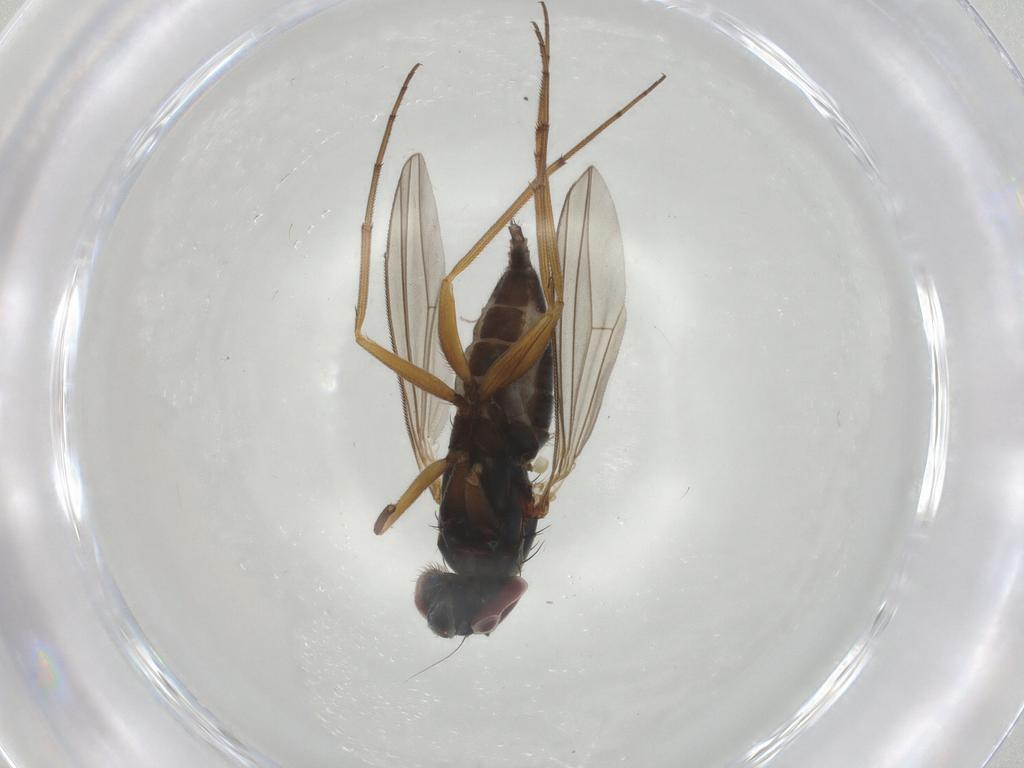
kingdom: Animalia
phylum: Arthropoda
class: Insecta
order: Diptera
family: Dolichopodidae
